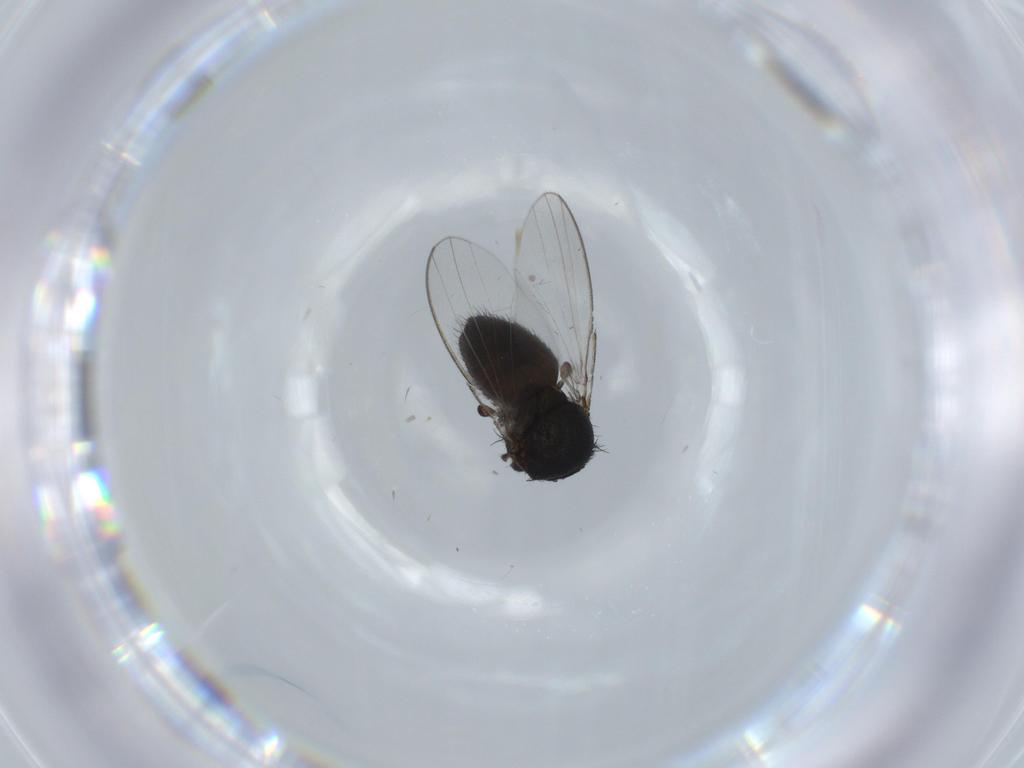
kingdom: Animalia
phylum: Arthropoda
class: Insecta
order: Diptera
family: Milichiidae
